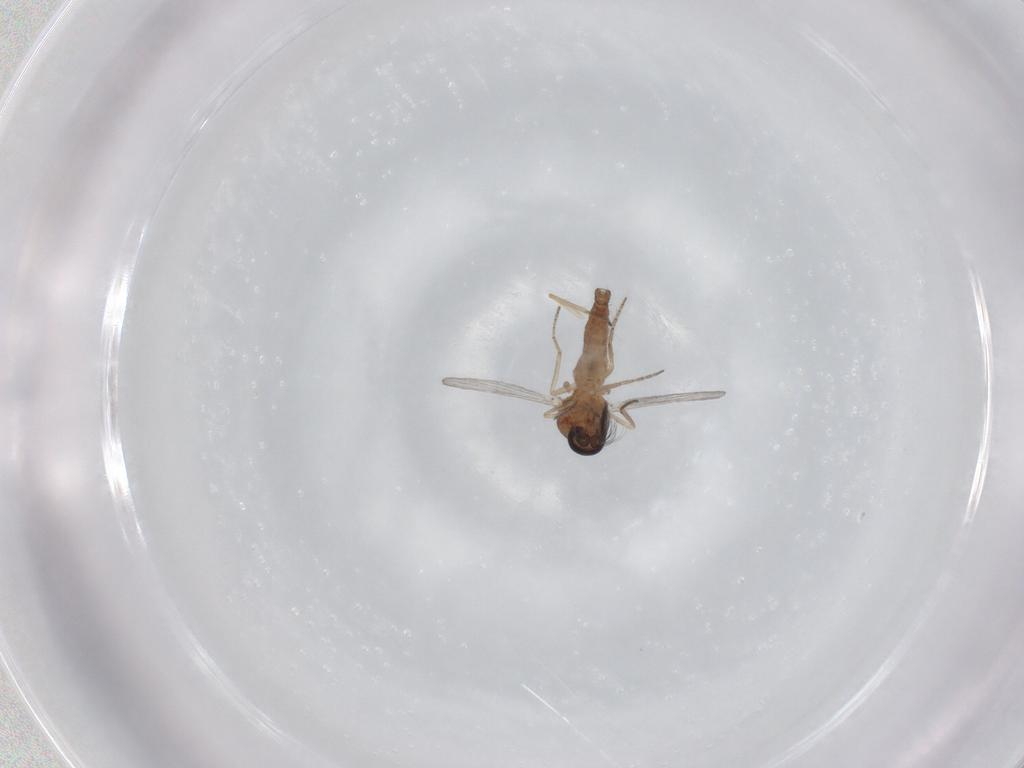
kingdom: Animalia
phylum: Arthropoda
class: Insecta
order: Diptera
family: Ceratopogonidae
